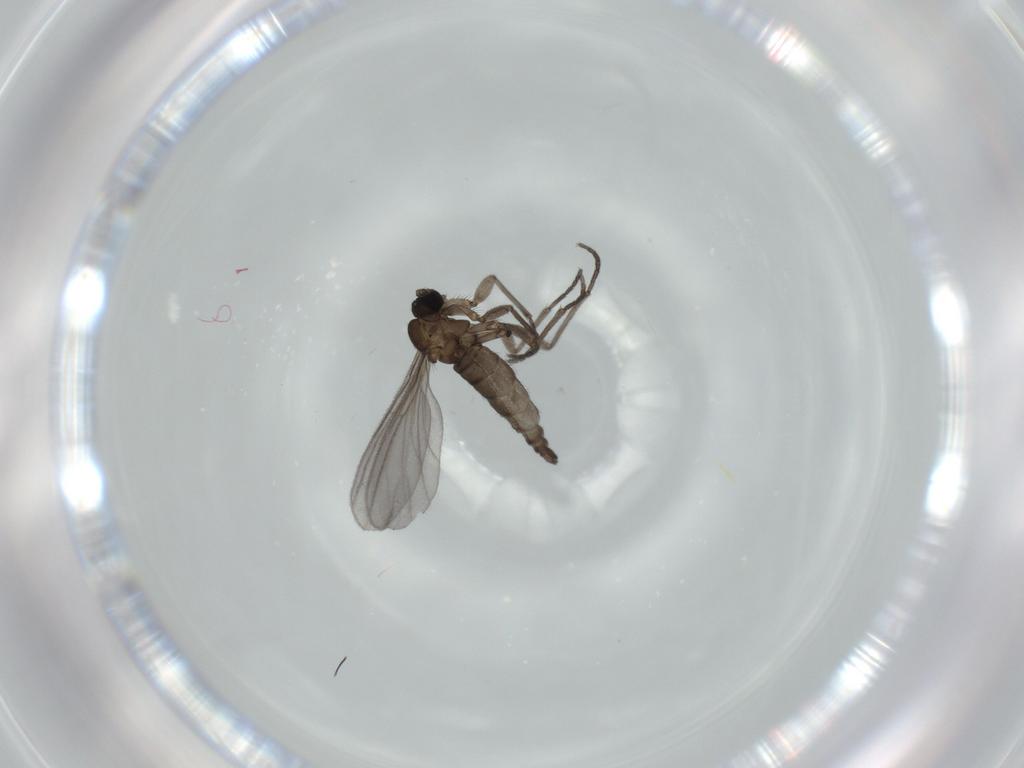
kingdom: Animalia
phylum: Arthropoda
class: Insecta
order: Diptera
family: Sciaridae
